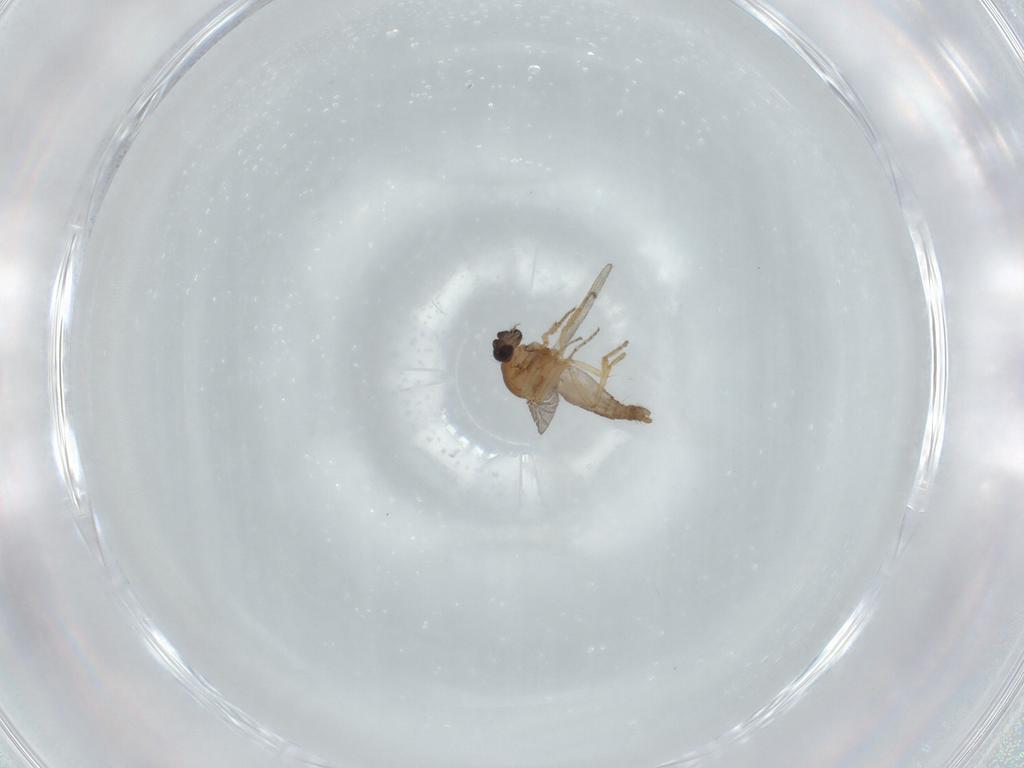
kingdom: Animalia
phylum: Arthropoda
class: Insecta
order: Diptera
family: Ceratopogonidae
